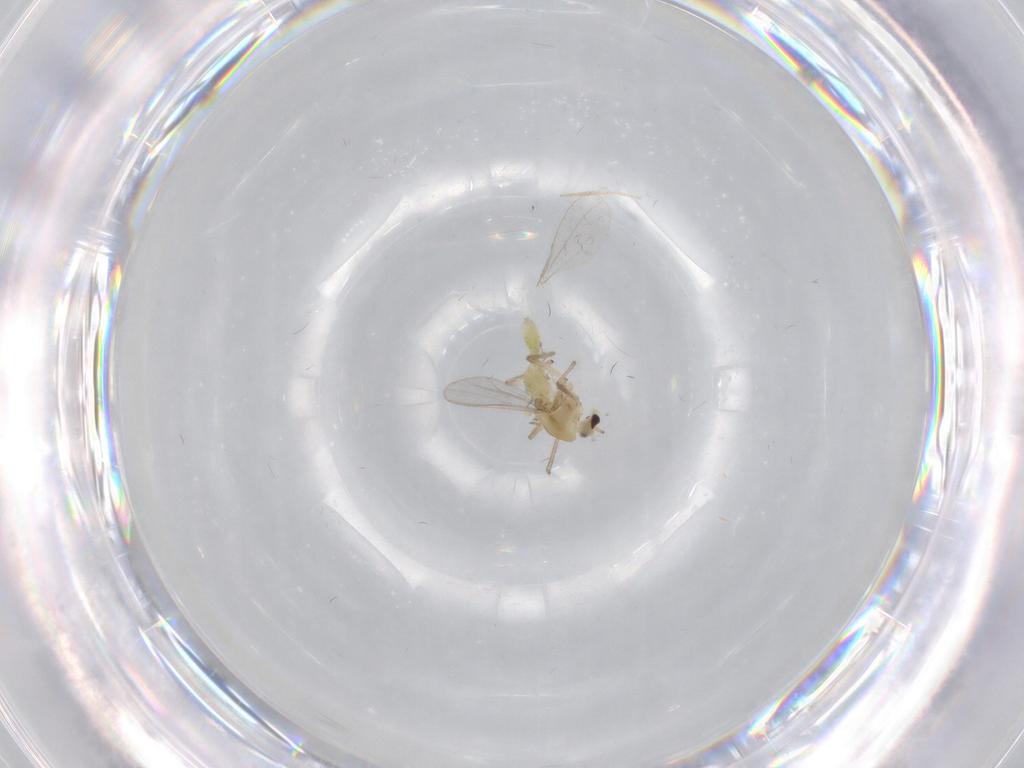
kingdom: Animalia
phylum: Arthropoda
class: Insecta
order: Diptera
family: Chironomidae
